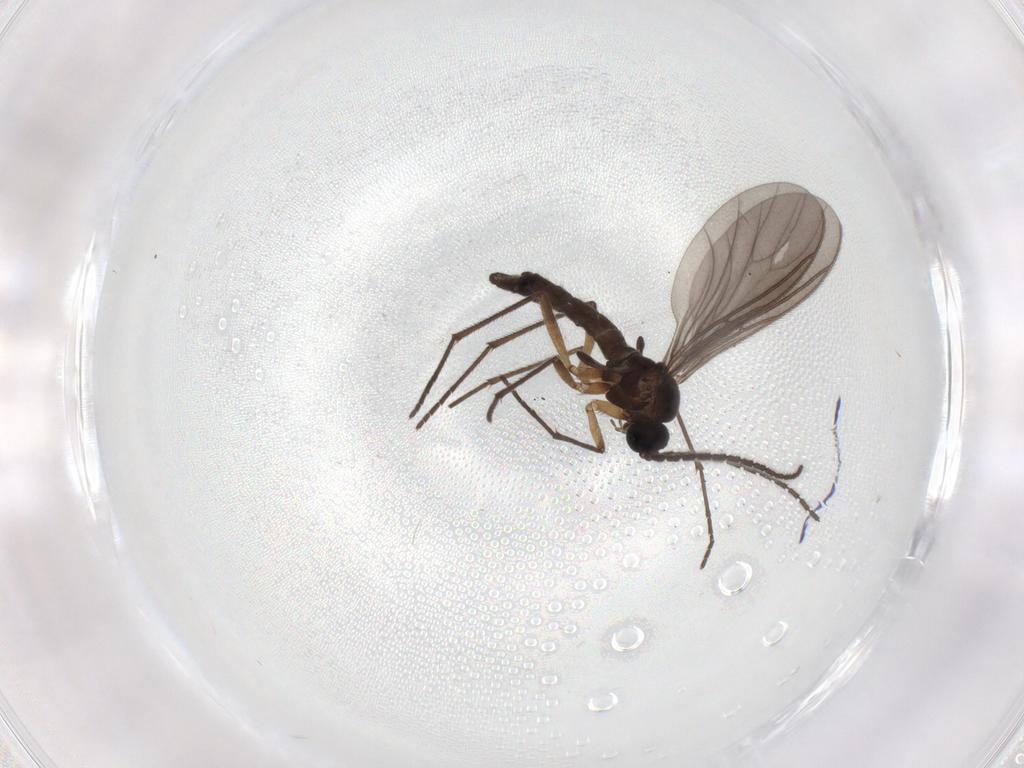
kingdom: Animalia
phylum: Arthropoda
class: Insecta
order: Diptera
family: Sciaridae
